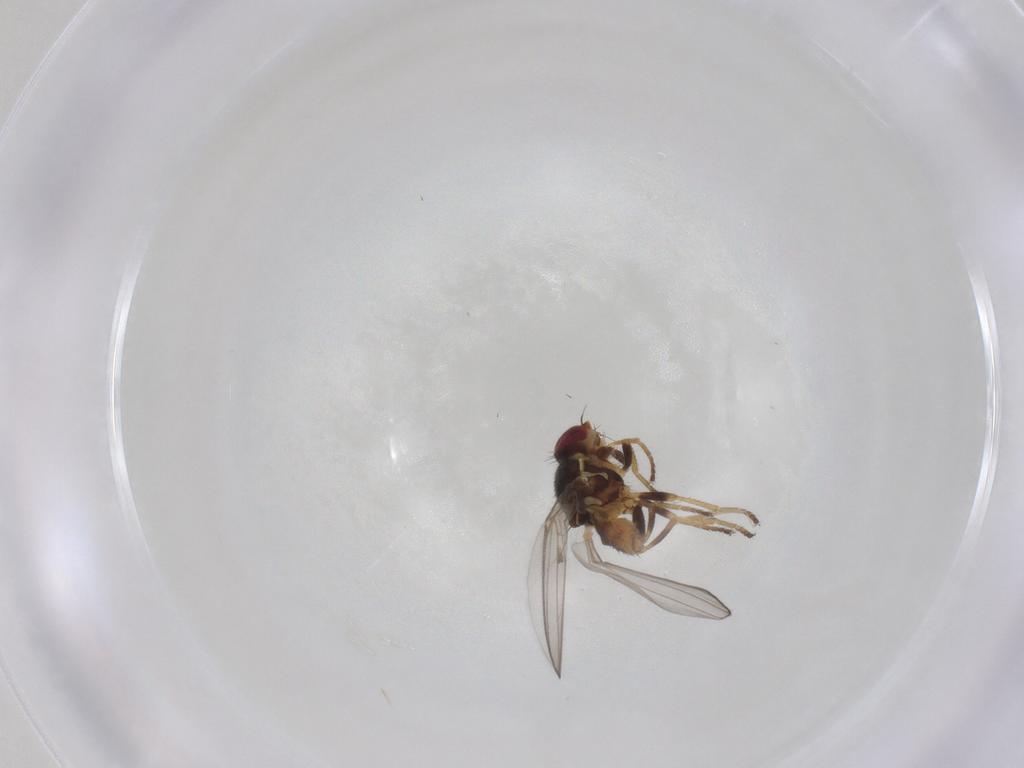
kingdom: Animalia
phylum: Arthropoda
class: Insecta
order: Diptera
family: Chloropidae
